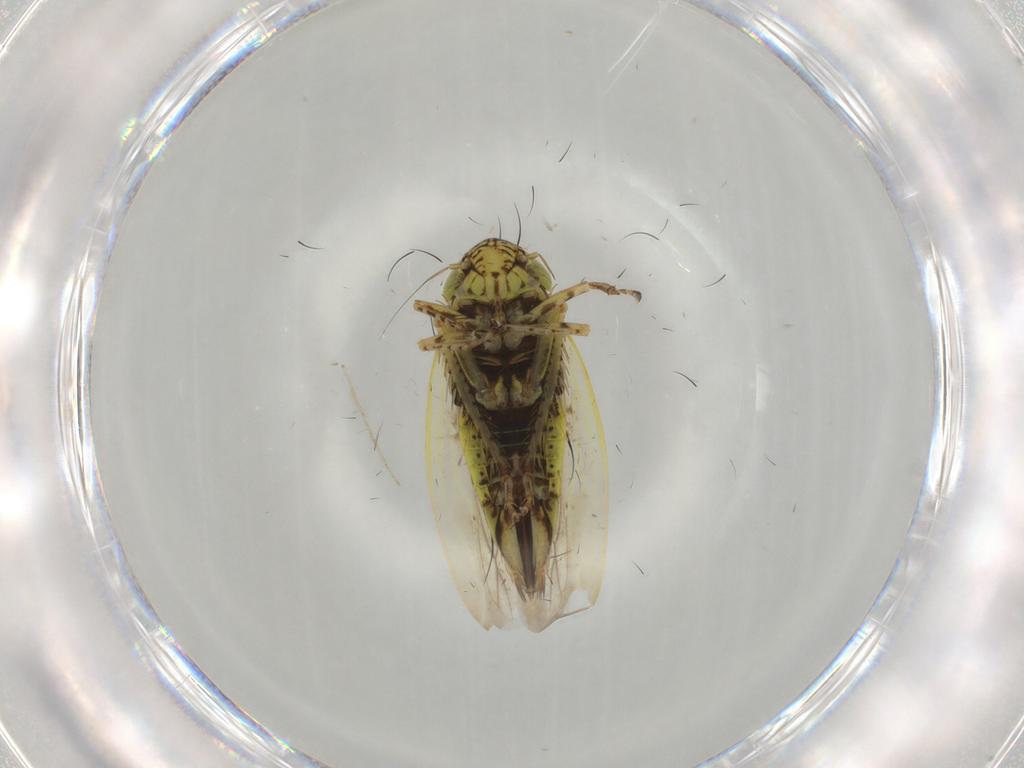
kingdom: Animalia
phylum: Arthropoda
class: Insecta
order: Hemiptera
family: Cicadellidae
